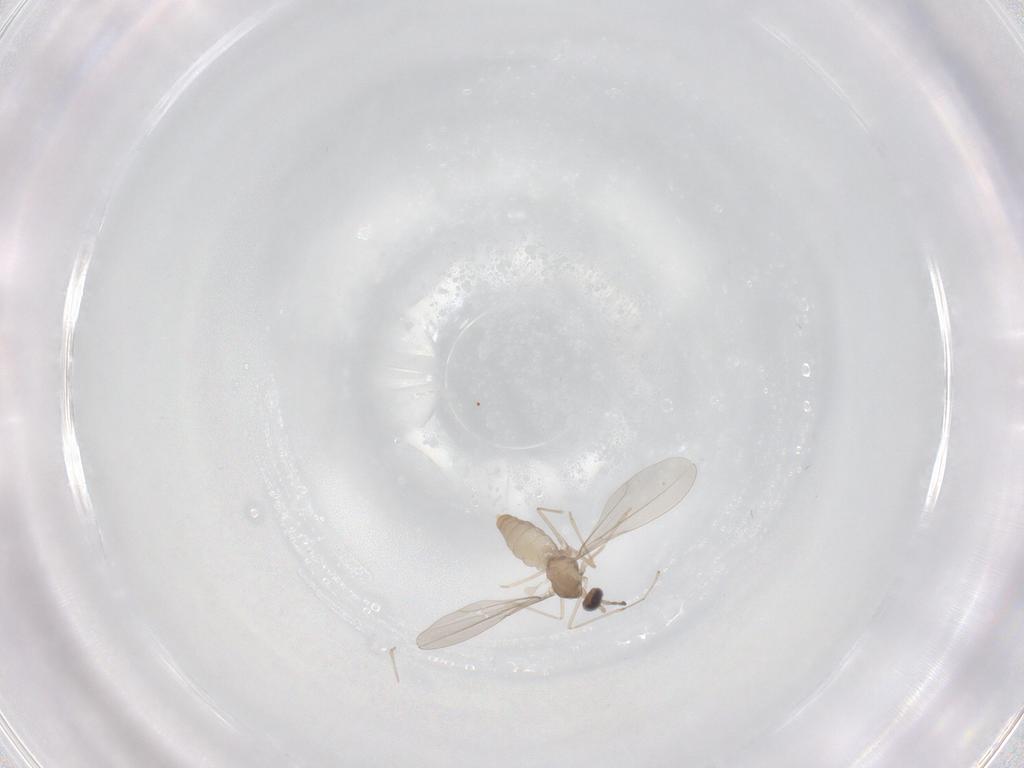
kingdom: Animalia
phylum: Arthropoda
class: Insecta
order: Diptera
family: Cecidomyiidae
